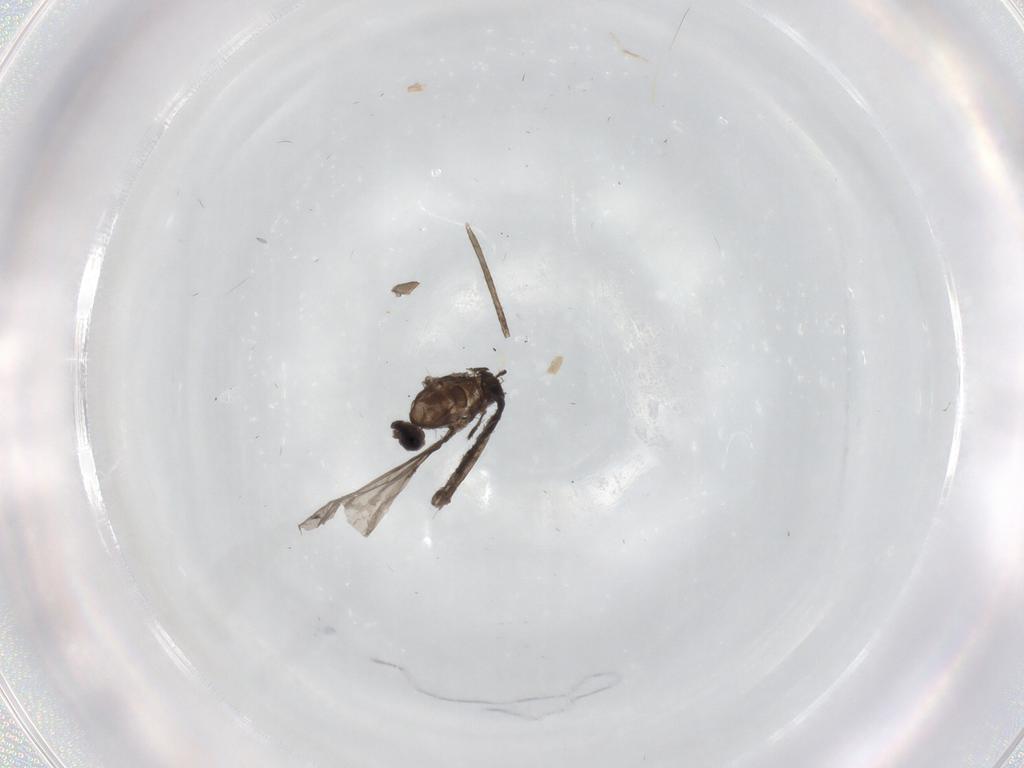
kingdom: Animalia
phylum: Arthropoda
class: Insecta
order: Diptera
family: Cecidomyiidae
